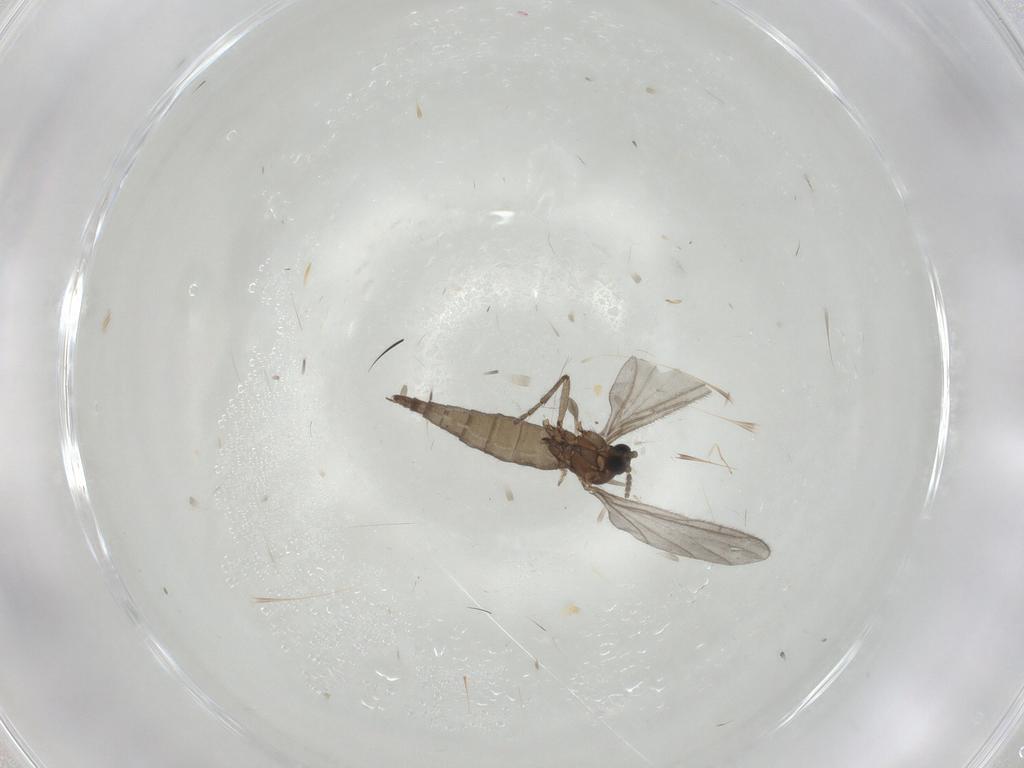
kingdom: Animalia
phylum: Arthropoda
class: Insecta
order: Diptera
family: Sciaridae
